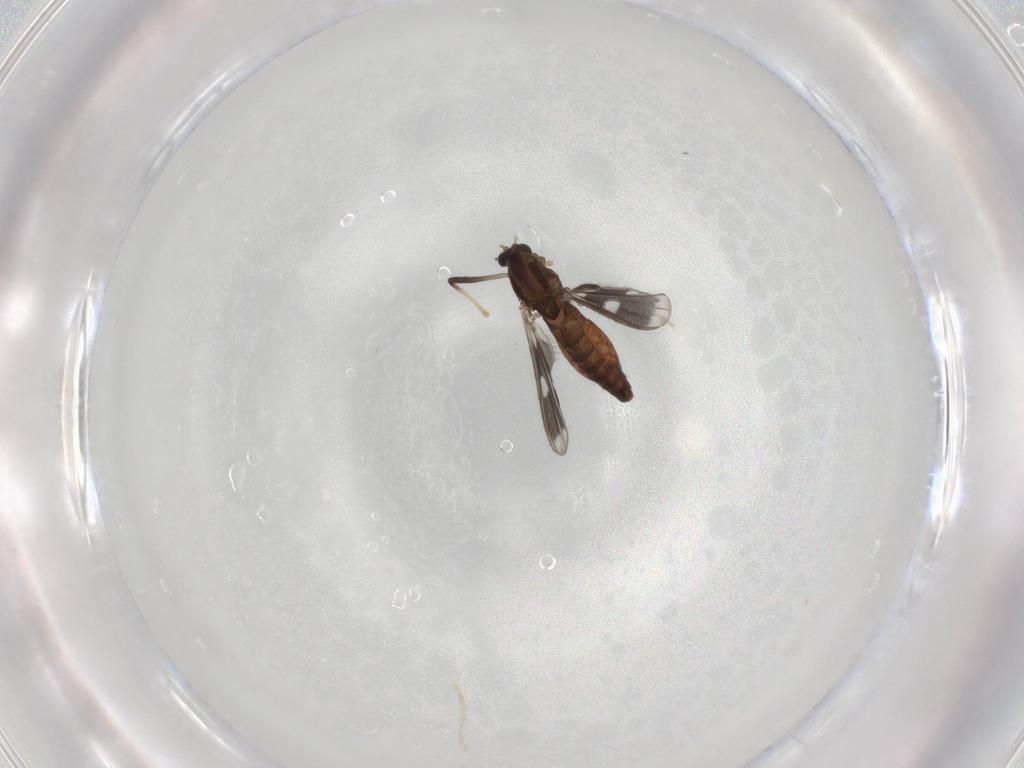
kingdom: Animalia
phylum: Arthropoda
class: Insecta
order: Diptera
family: Chironomidae
